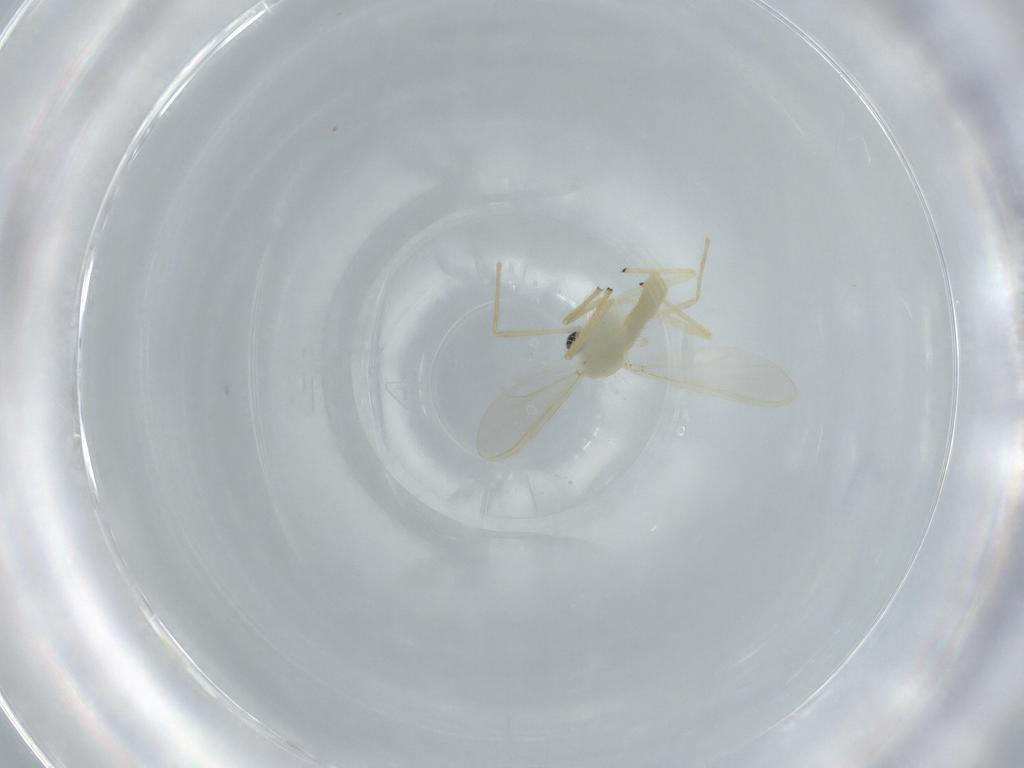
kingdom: Animalia
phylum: Arthropoda
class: Insecta
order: Diptera
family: Chironomidae
